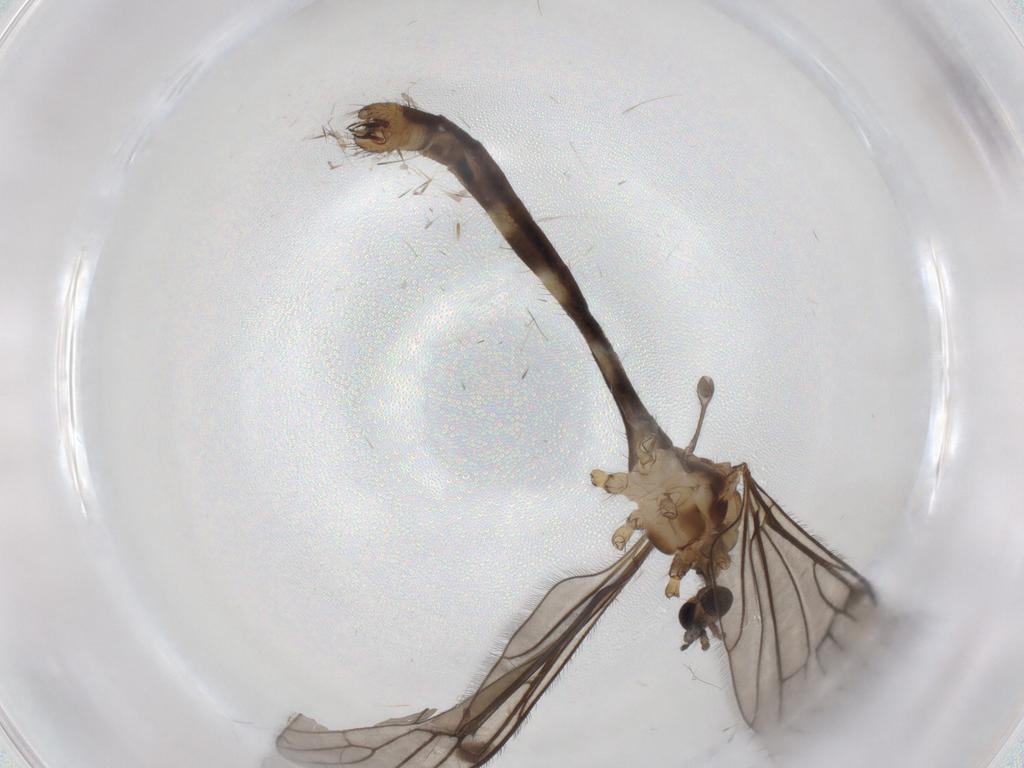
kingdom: Animalia
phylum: Arthropoda
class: Insecta
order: Diptera
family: Limoniidae
